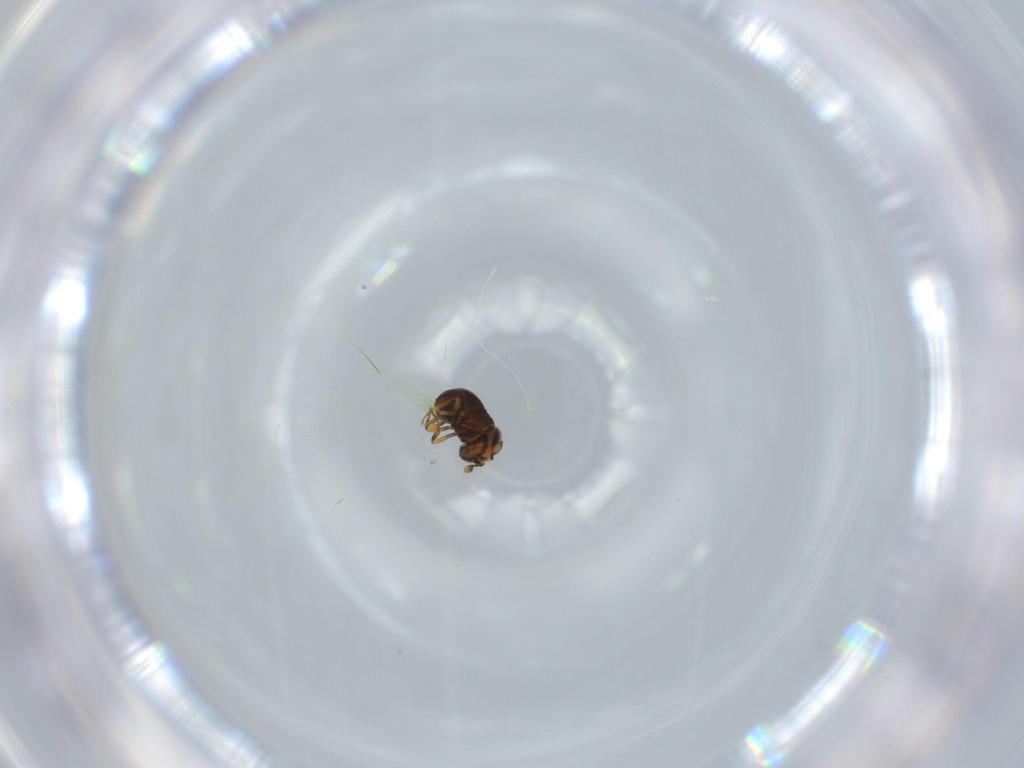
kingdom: Animalia
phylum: Arthropoda
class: Insecta
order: Hymenoptera
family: Scelionidae
